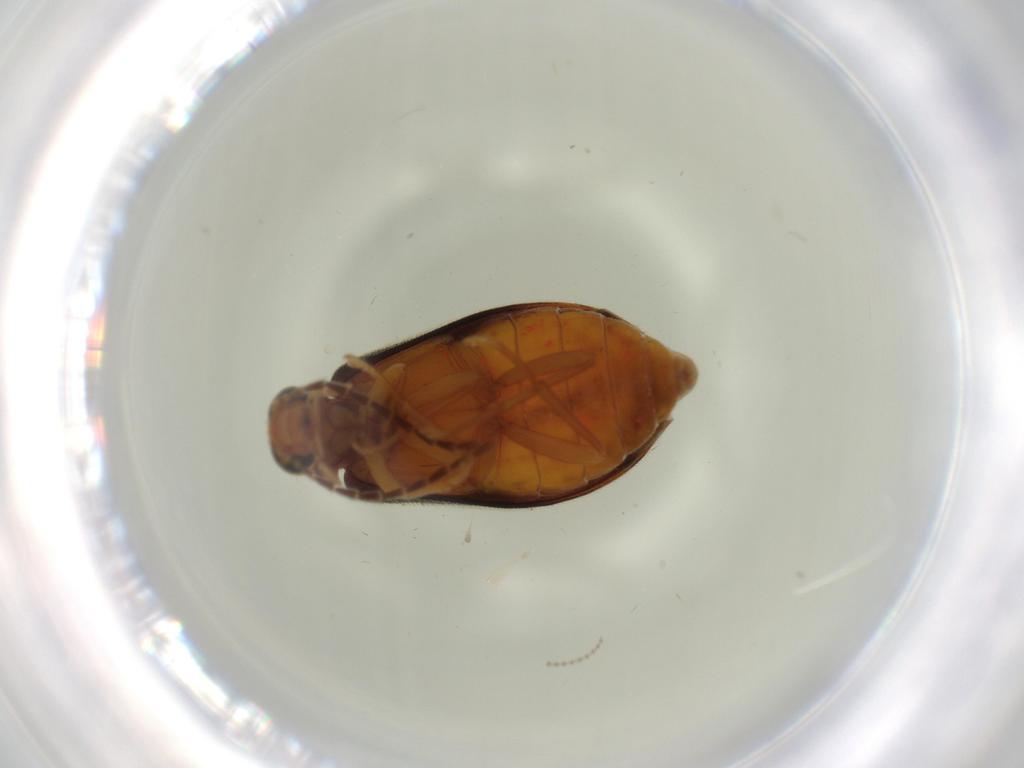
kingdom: Animalia
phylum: Arthropoda
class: Insecta
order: Coleoptera
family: Scraptiidae
